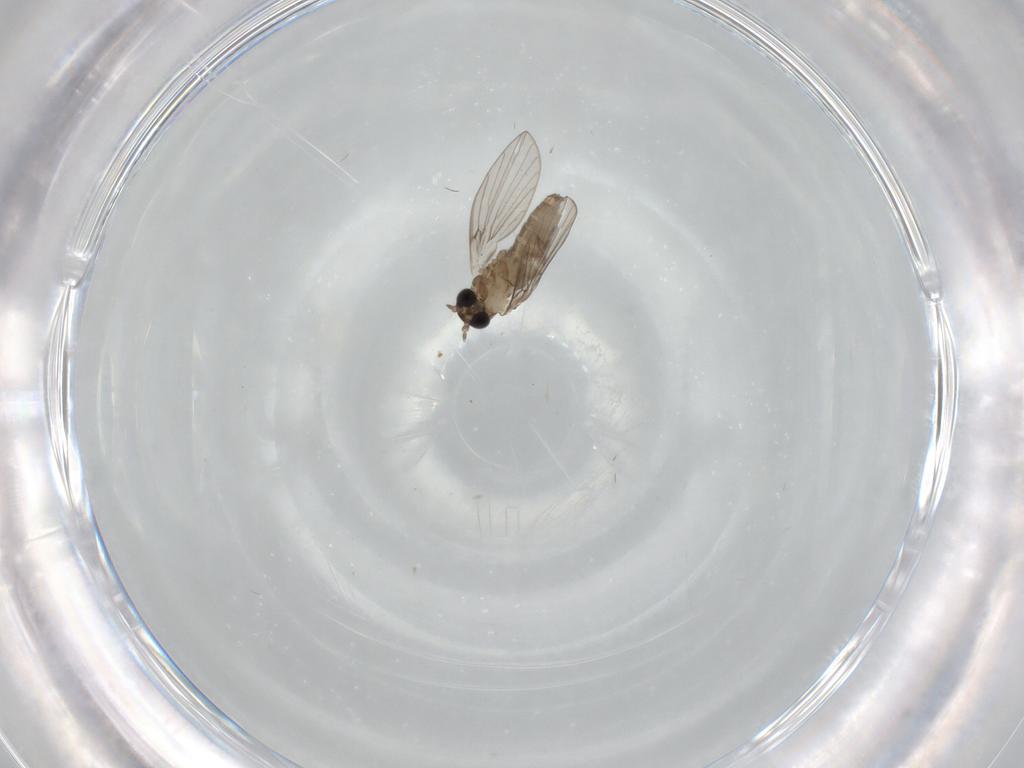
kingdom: Animalia
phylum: Arthropoda
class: Insecta
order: Diptera
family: Psychodidae
